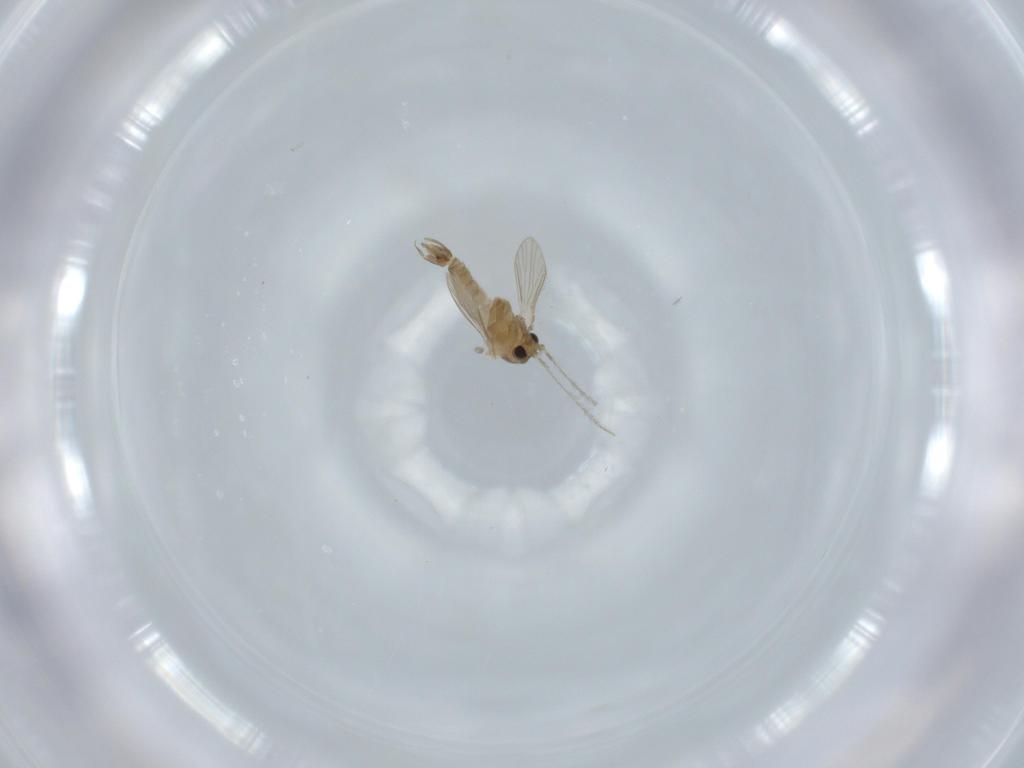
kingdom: Animalia
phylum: Arthropoda
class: Insecta
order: Diptera
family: Psychodidae
